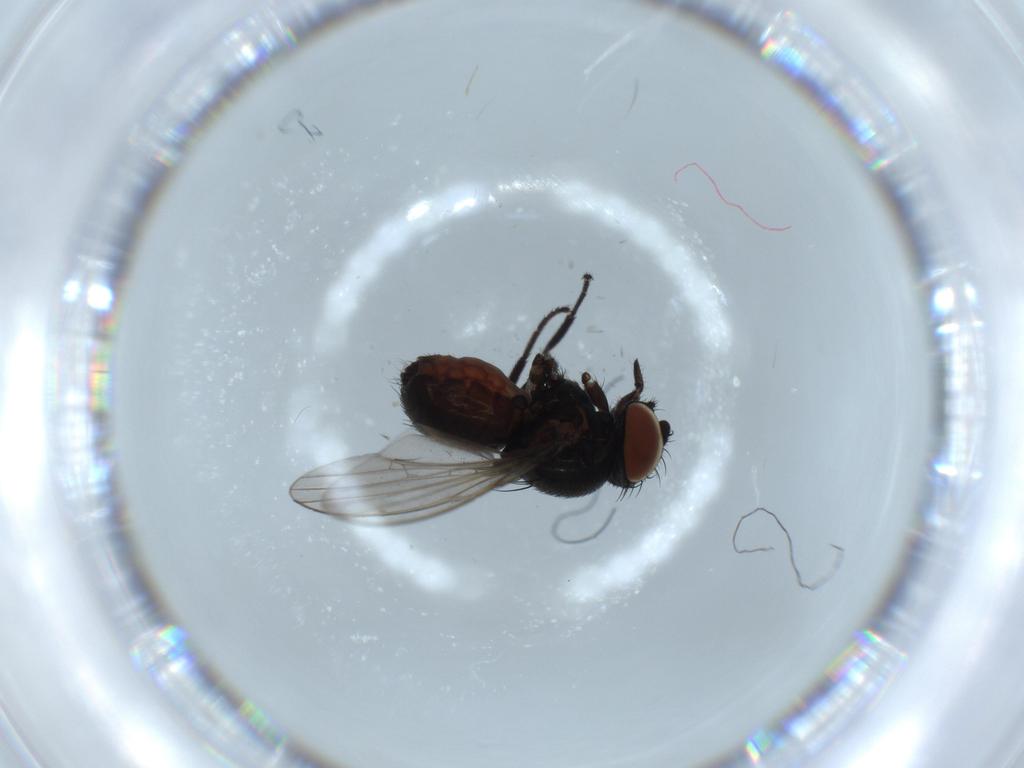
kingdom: Animalia
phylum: Arthropoda
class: Insecta
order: Diptera
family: Milichiidae
